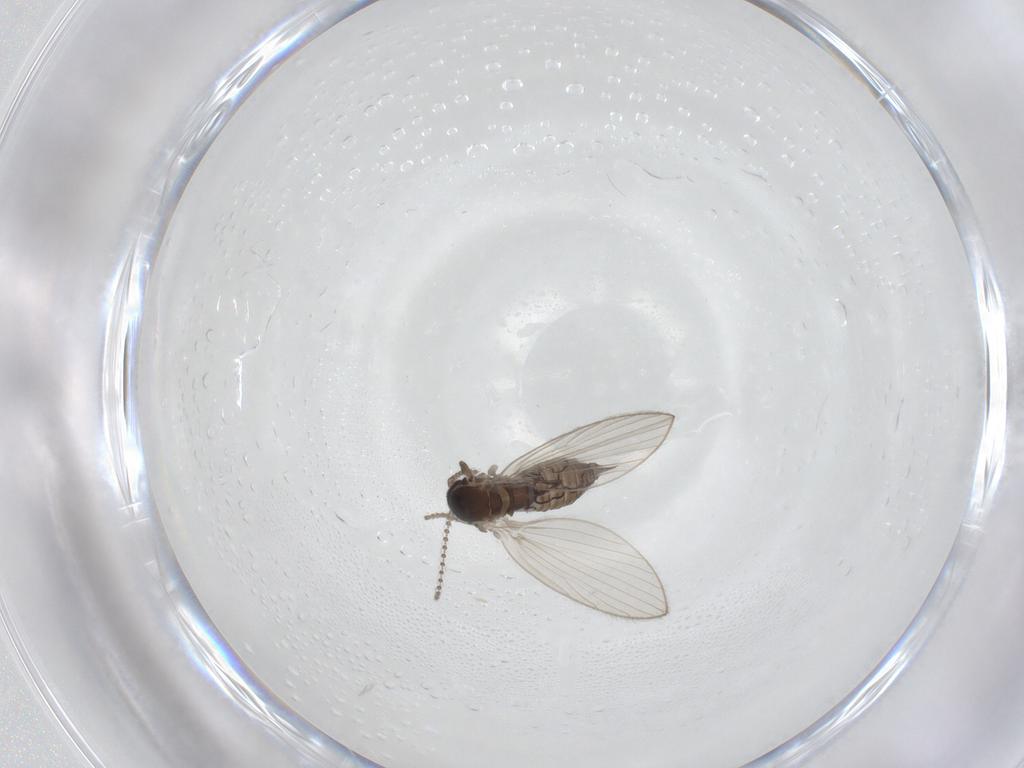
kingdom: Animalia
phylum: Arthropoda
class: Insecta
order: Diptera
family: Psychodidae
